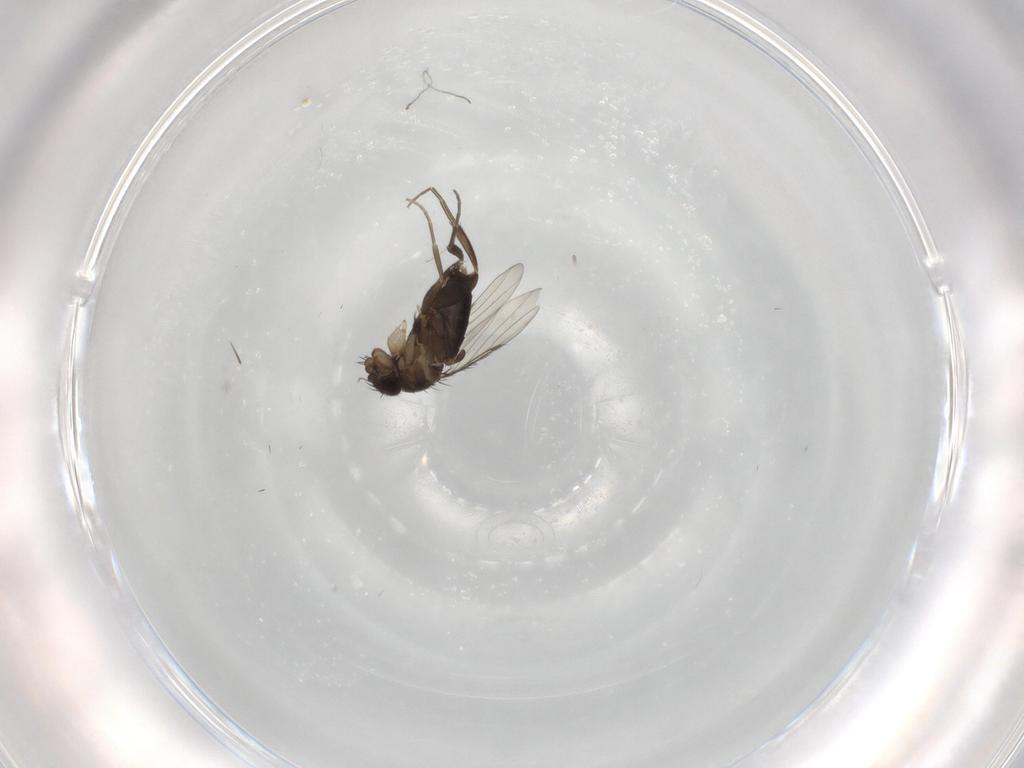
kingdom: Animalia
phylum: Arthropoda
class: Insecta
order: Diptera
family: Phoridae
